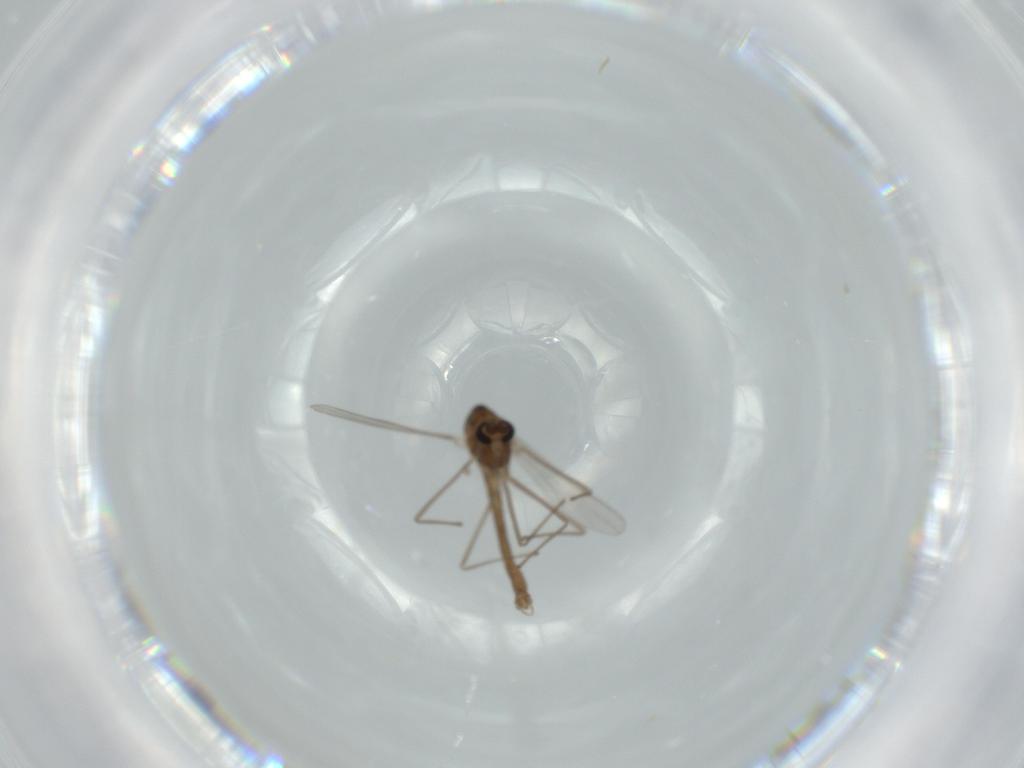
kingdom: Animalia
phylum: Arthropoda
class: Insecta
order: Diptera
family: Chironomidae
